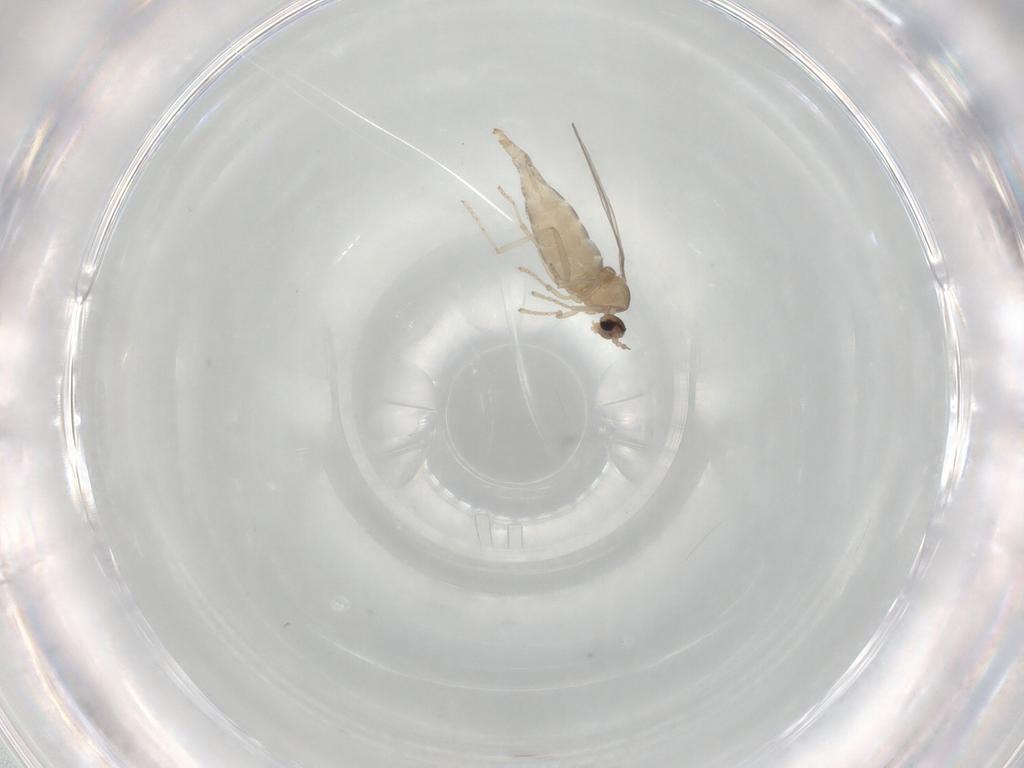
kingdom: Animalia
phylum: Arthropoda
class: Insecta
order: Diptera
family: Cecidomyiidae
